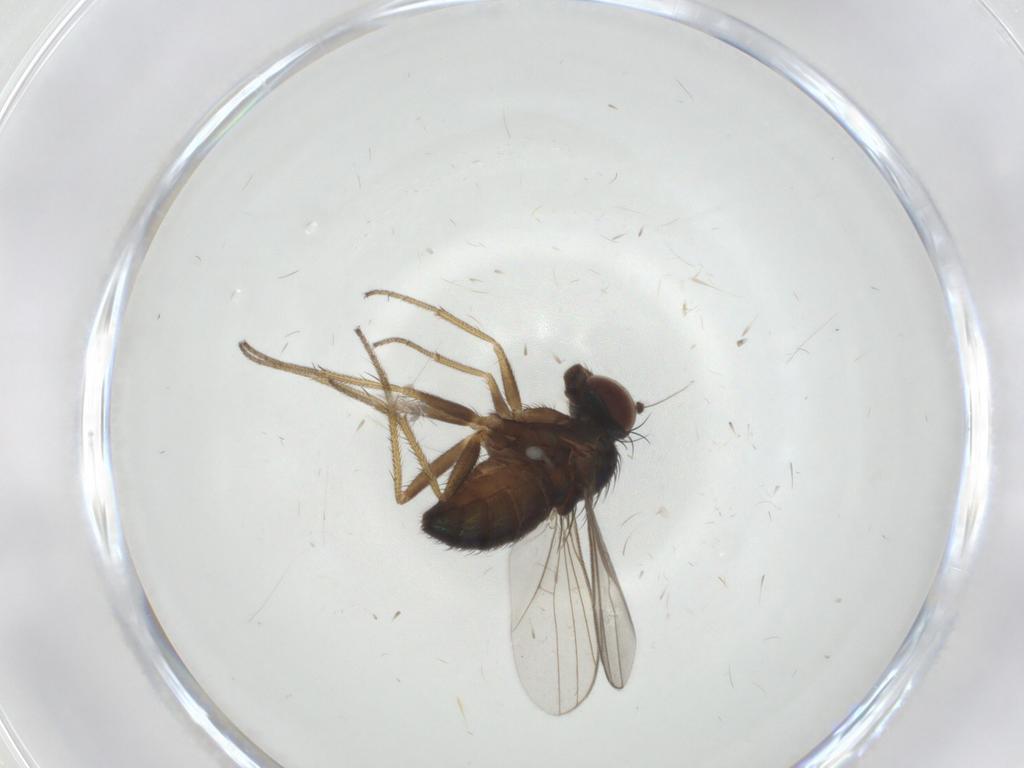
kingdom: Animalia
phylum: Arthropoda
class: Insecta
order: Diptera
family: Dolichopodidae
